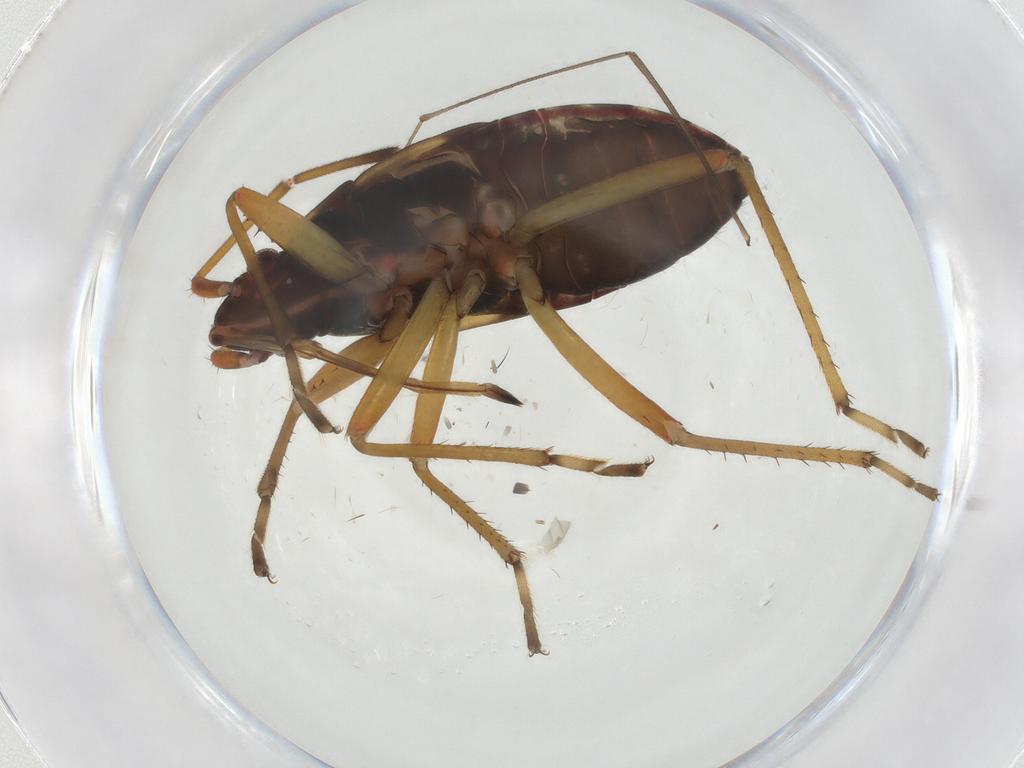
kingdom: Animalia
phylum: Arthropoda
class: Insecta
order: Hemiptera
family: Rhyparochromidae
